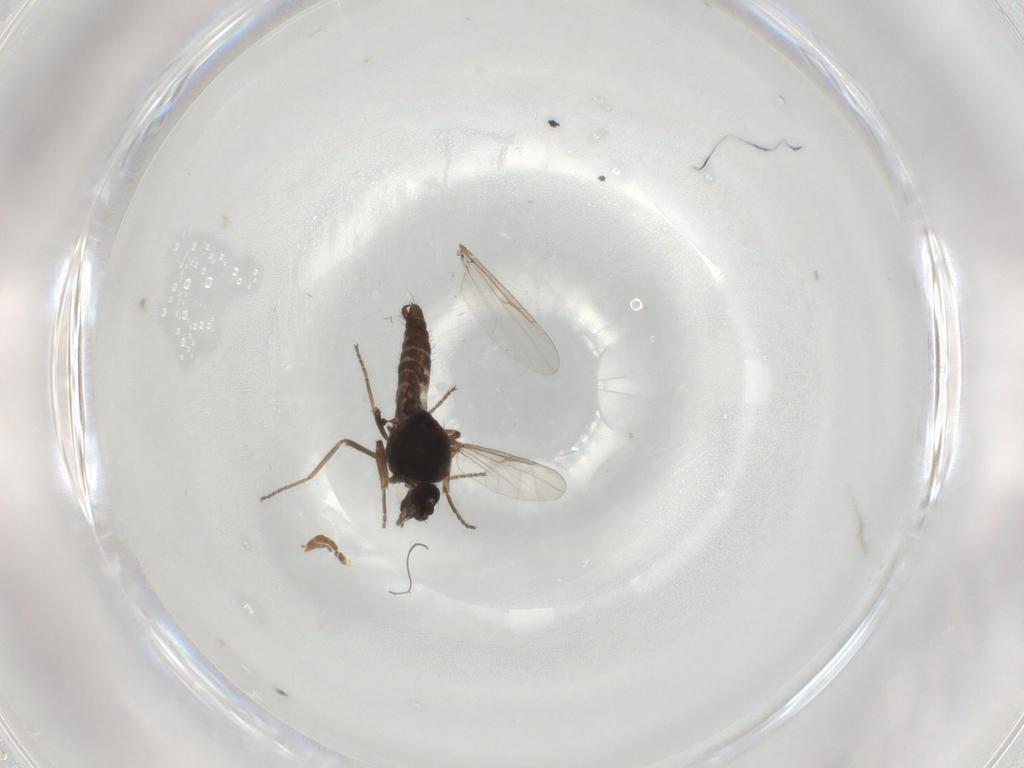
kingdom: Animalia
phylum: Arthropoda
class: Insecta
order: Diptera
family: Ceratopogonidae
